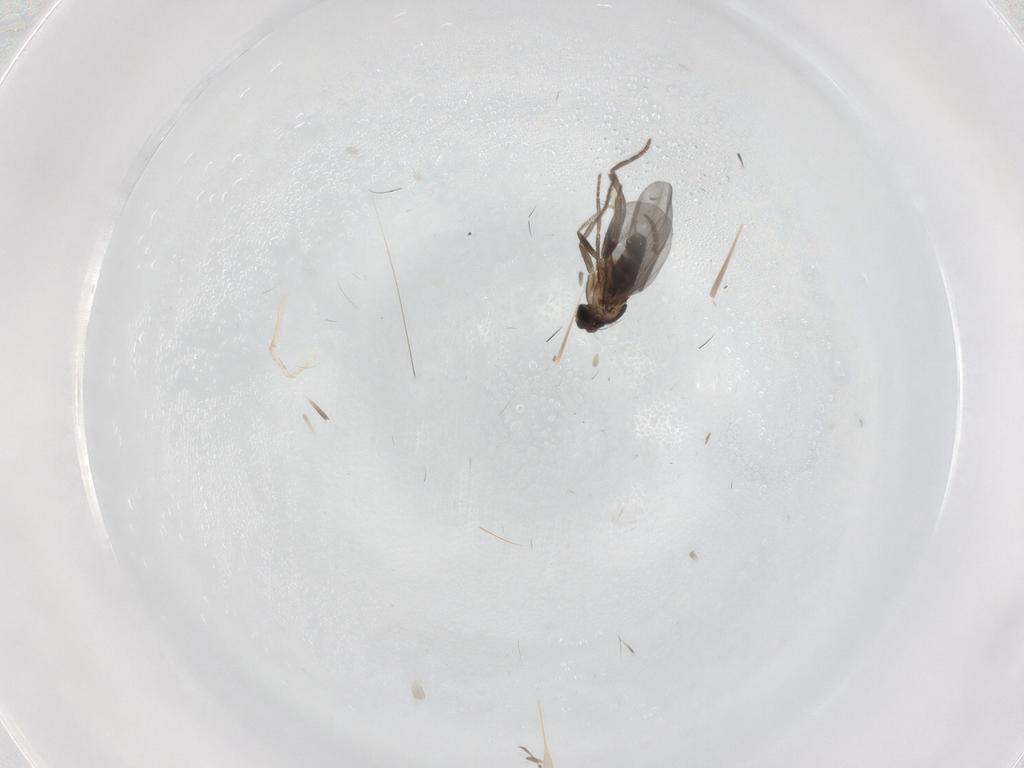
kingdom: Animalia
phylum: Arthropoda
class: Insecta
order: Diptera
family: Phoridae
